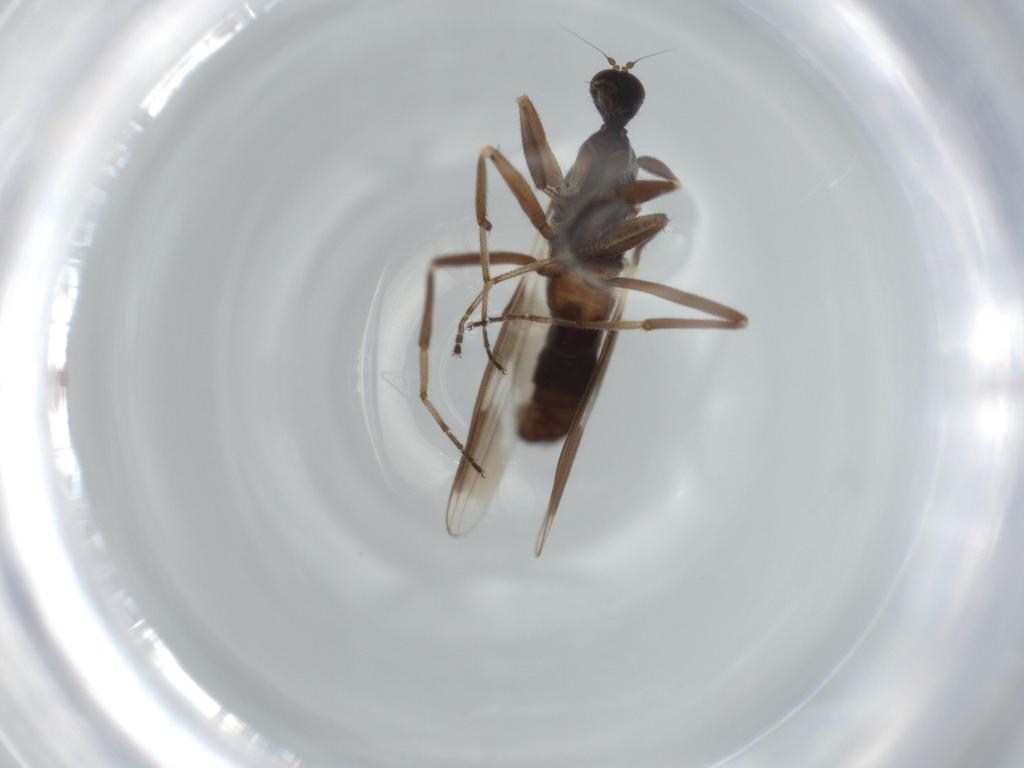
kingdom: Animalia
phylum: Arthropoda
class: Insecta
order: Diptera
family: Hybotidae
